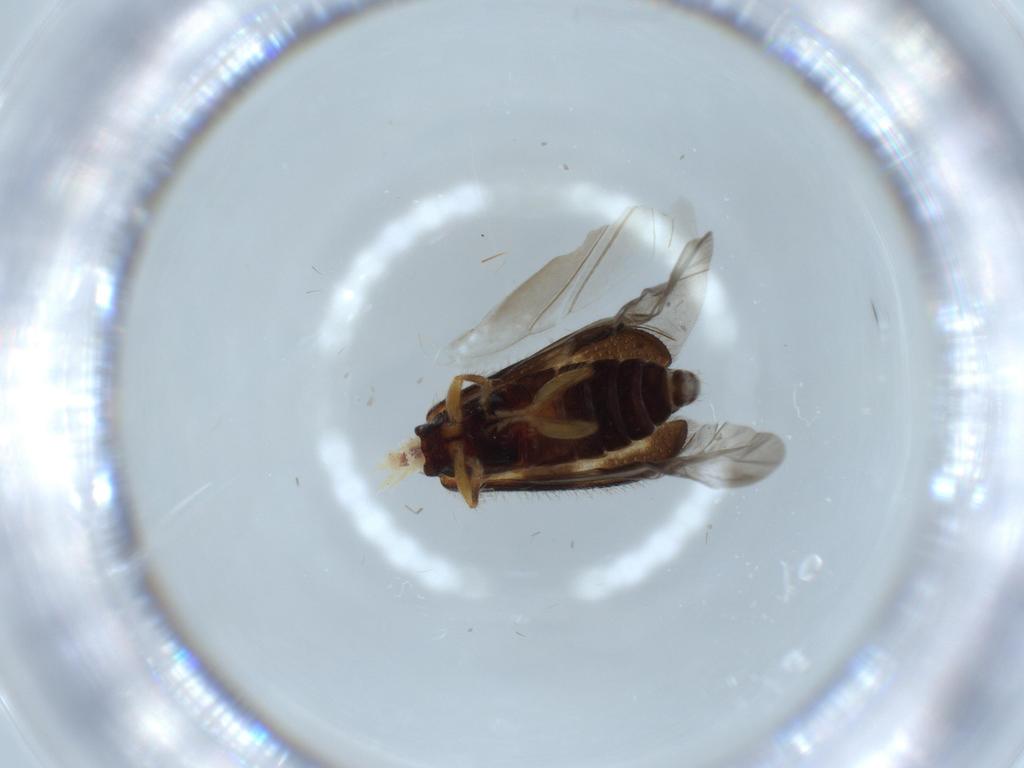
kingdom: Animalia
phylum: Arthropoda
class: Insecta
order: Coleoptera
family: Cleridae
